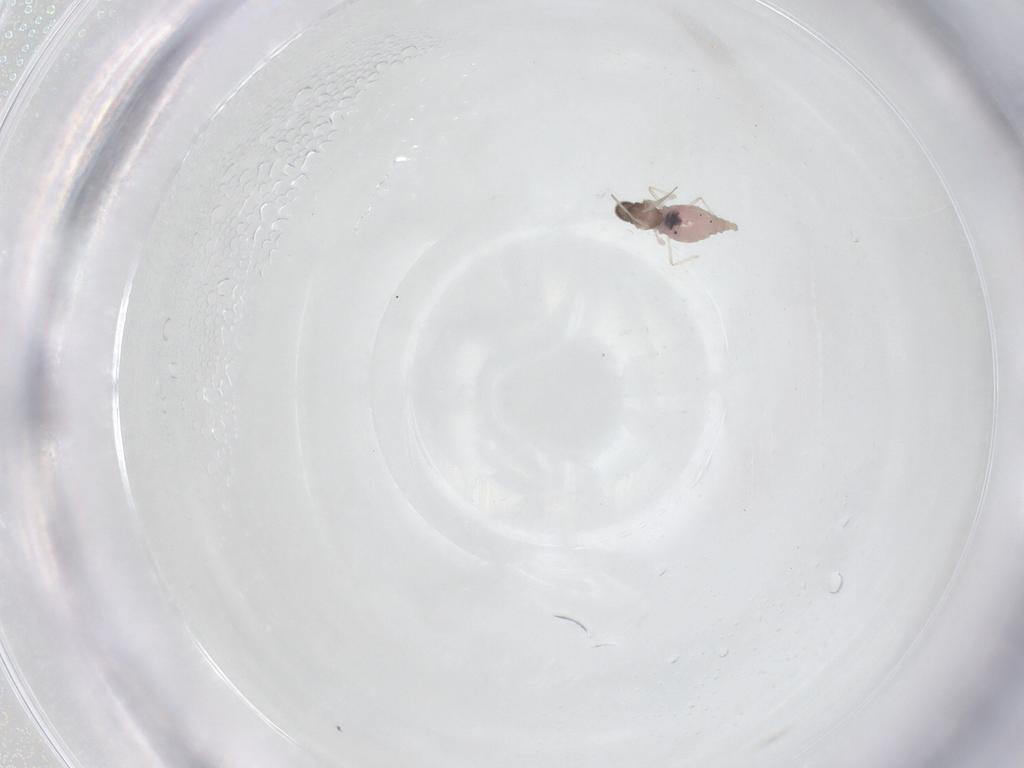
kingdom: Animalia
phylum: Arthropoda
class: Insecta
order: Diptera
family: Cecidomyiidae
